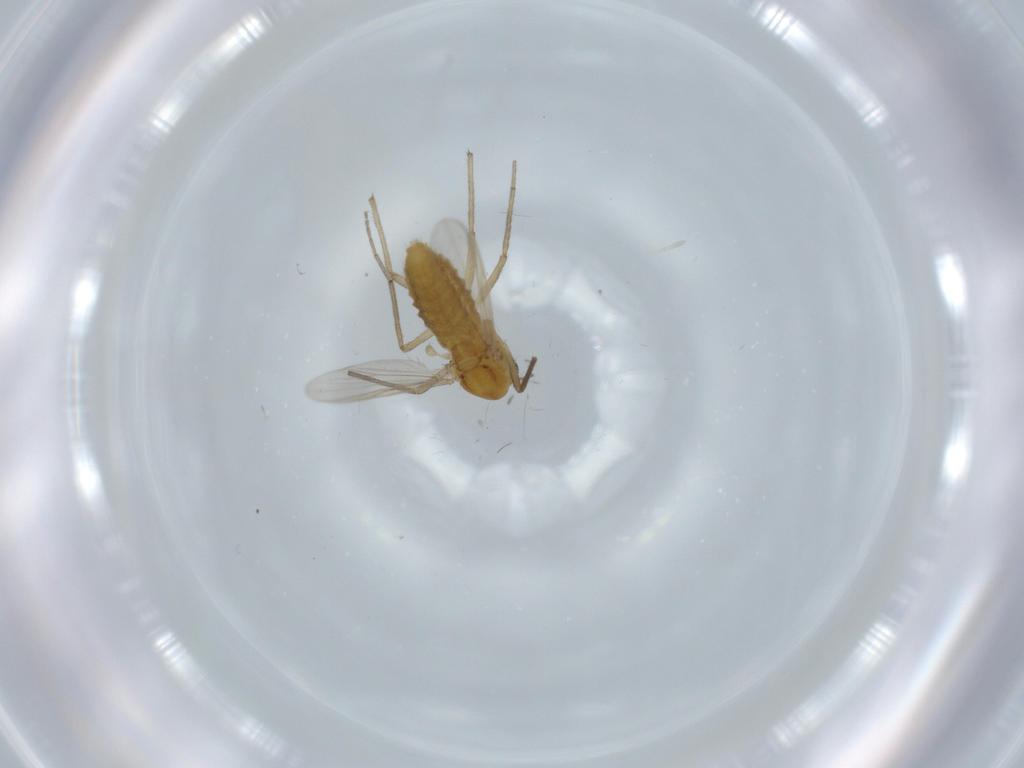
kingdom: Animalia
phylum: Arthropoda
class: Insecta
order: Diptera
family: Chironomidae
